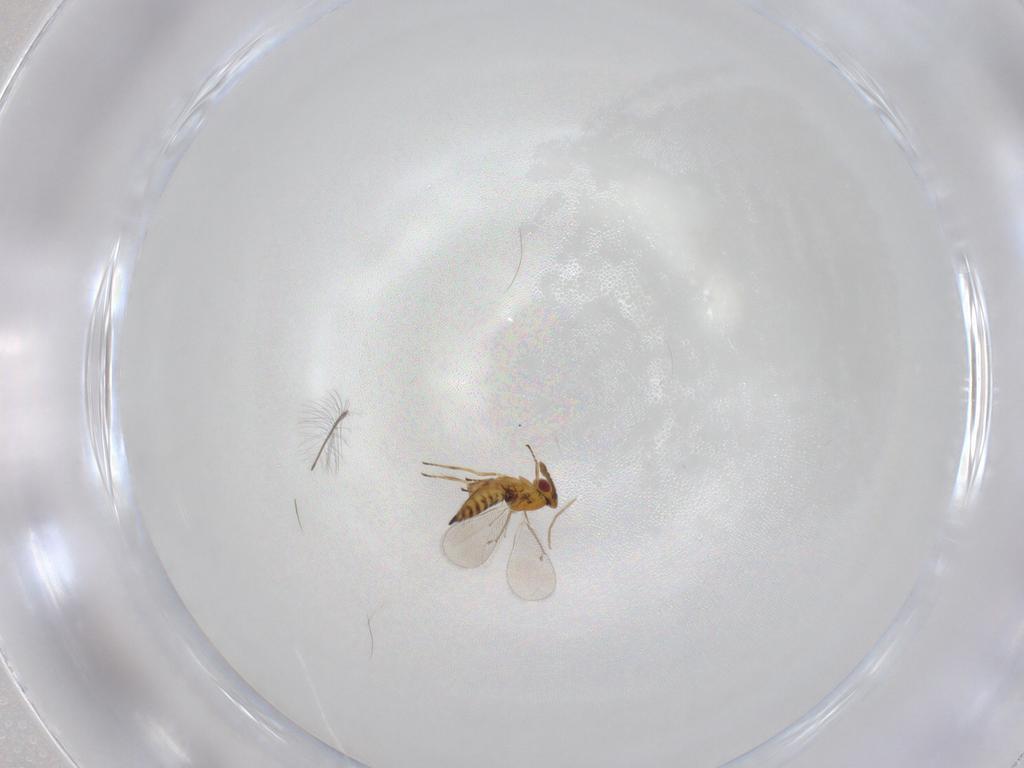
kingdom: Animalia
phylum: Arthropoda
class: Insecta
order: Hymenoptera
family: Eulophidae
